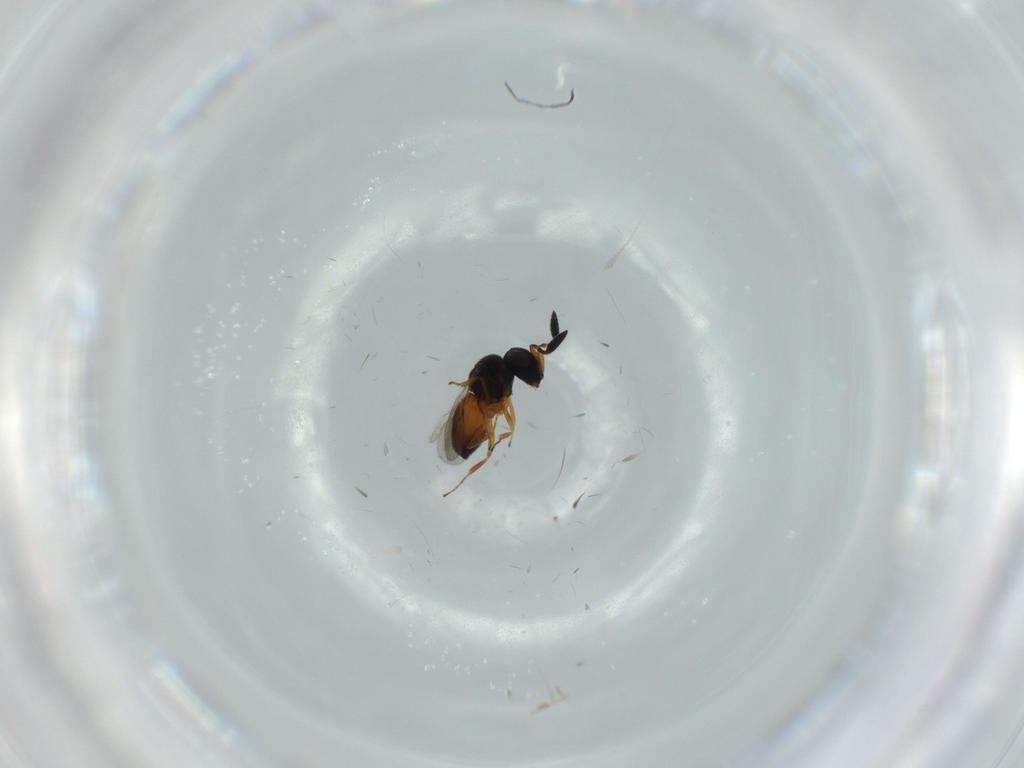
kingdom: Animalia
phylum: Arthropoda
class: Insecta
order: Hymenoptera
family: Scelionidae
